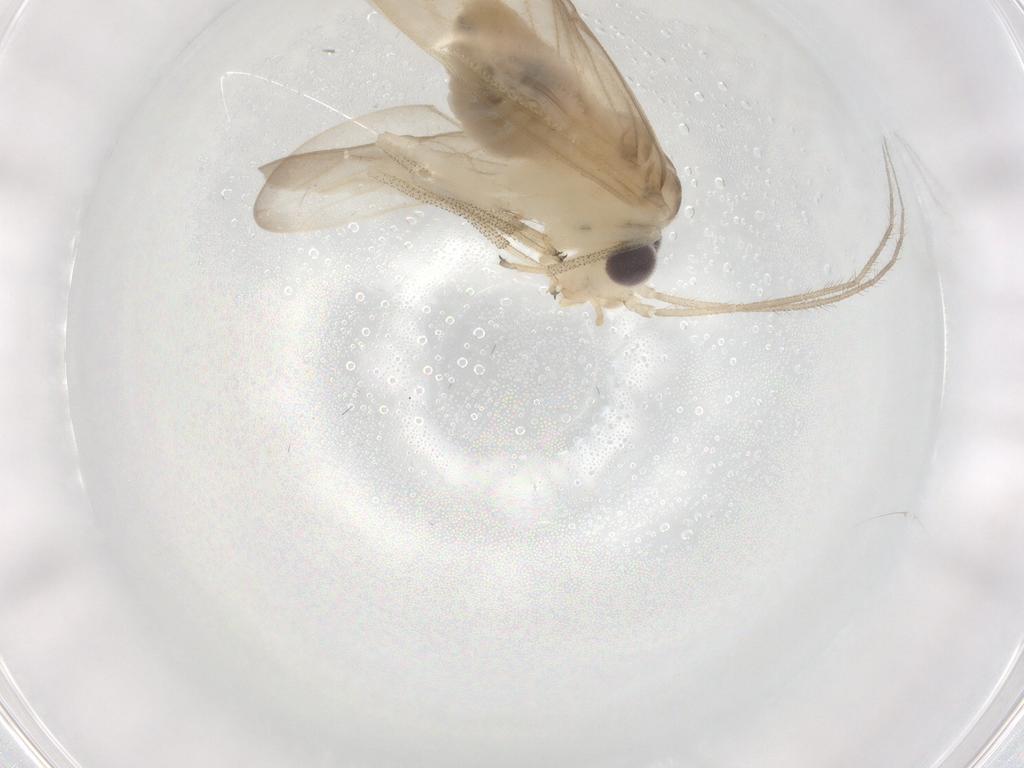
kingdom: Animalia
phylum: Arthropoda
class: Insecta
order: Psocodea
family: Amphipsocidae
